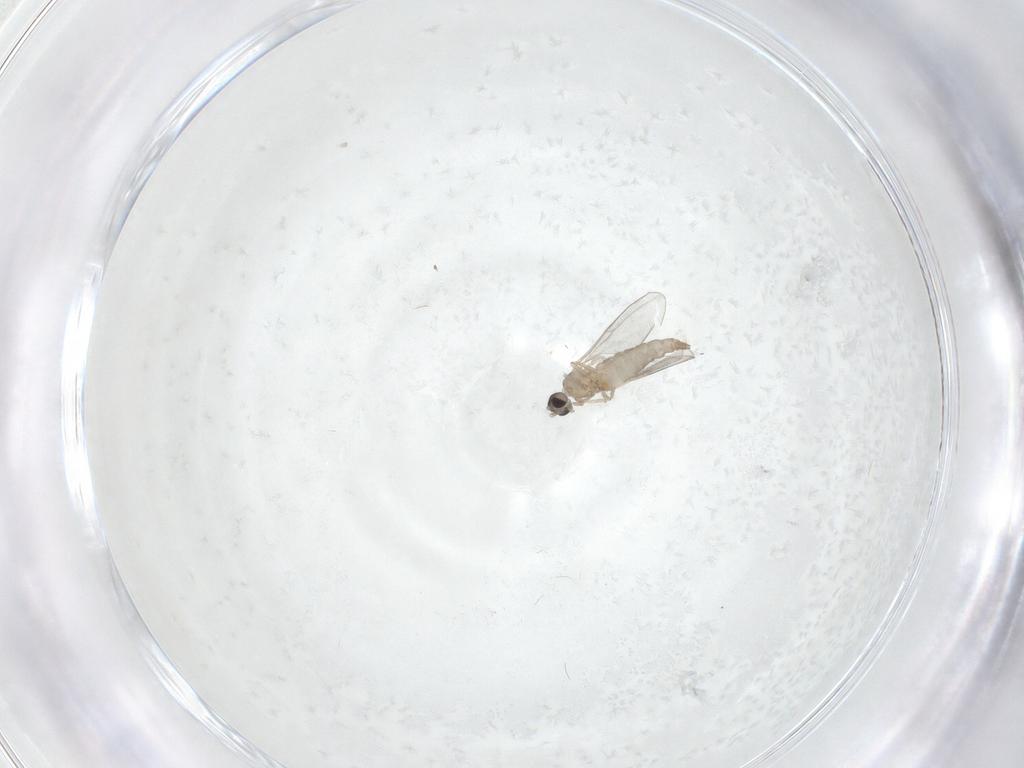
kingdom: Animalia
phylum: Arthropoda
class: Insecta
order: Diptera
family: Cecidomyiidae
